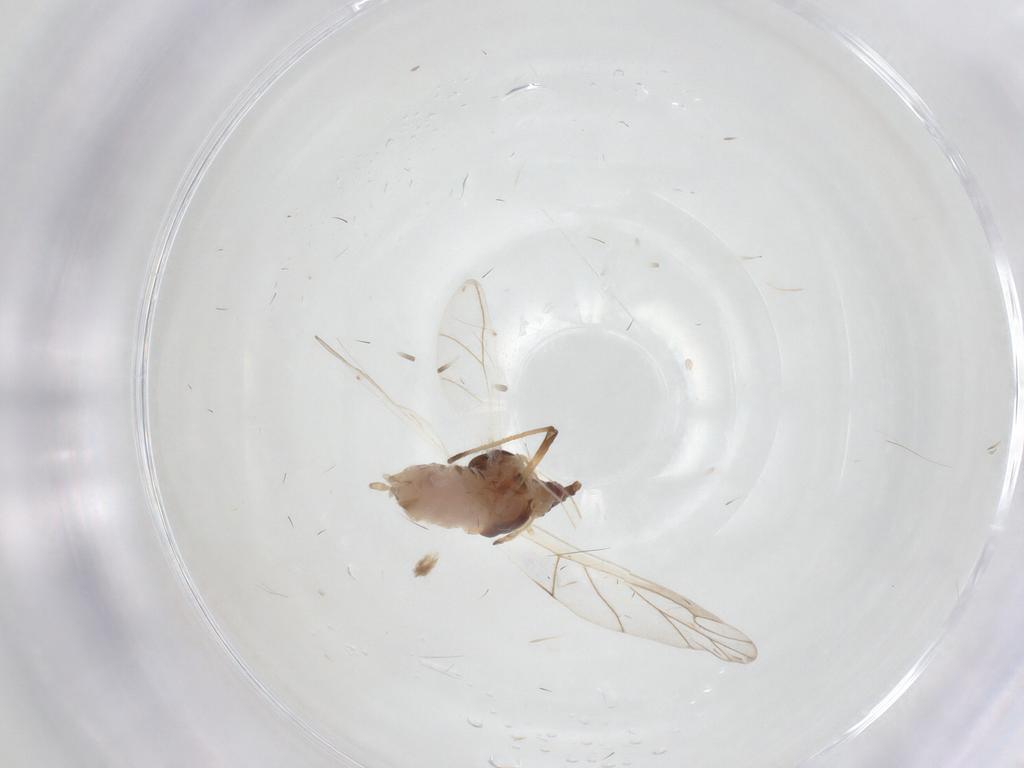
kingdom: Animalia
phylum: Arthropoda
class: Insecta
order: Hemiptera
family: Aphididae
